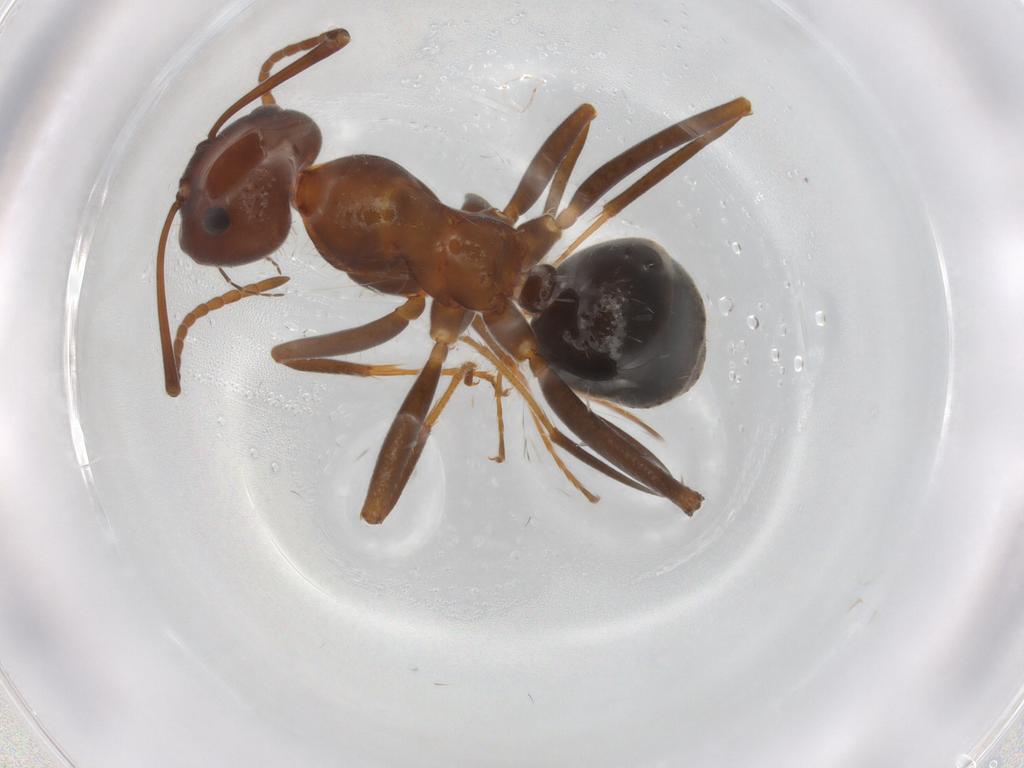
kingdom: Animalia
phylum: Arthropoda
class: Insecta
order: Hymenoptera
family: Formicidae
